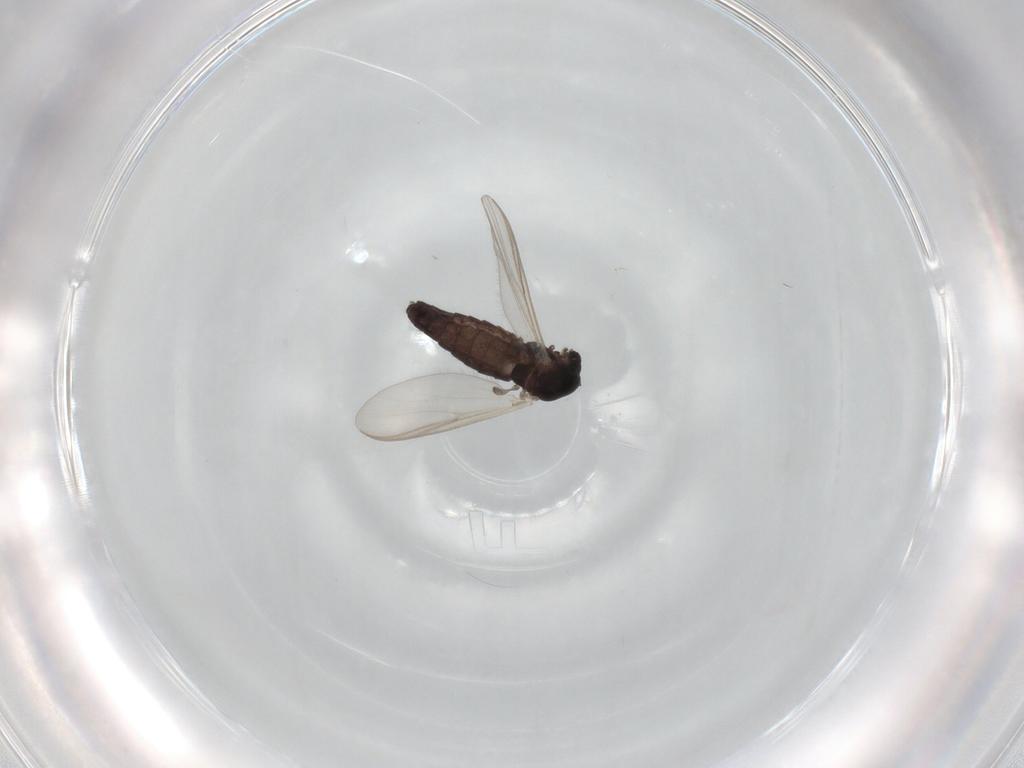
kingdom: Animalia
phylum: Arthropoda
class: Insecta
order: Diptera
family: Chironomidae
